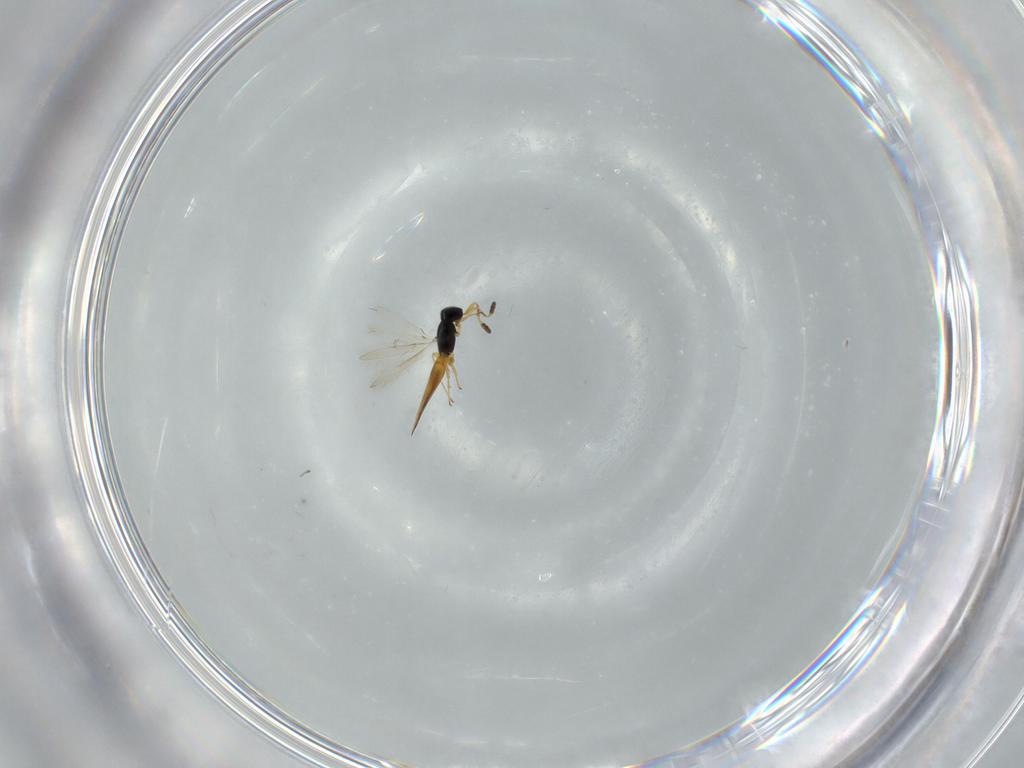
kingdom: Animalia
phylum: Arthropoda
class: Insecta
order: Hymenoptera
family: Scelionidae
